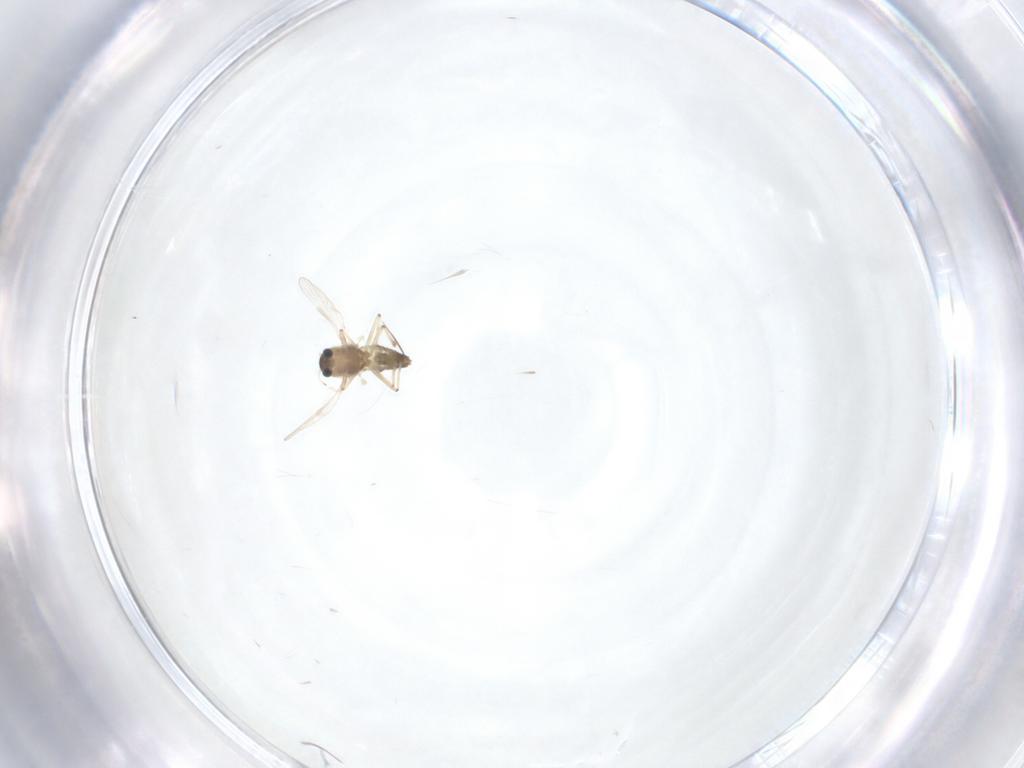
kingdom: Animalia
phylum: Arthropoda
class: Insecta
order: Diptera
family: Chironomidae
